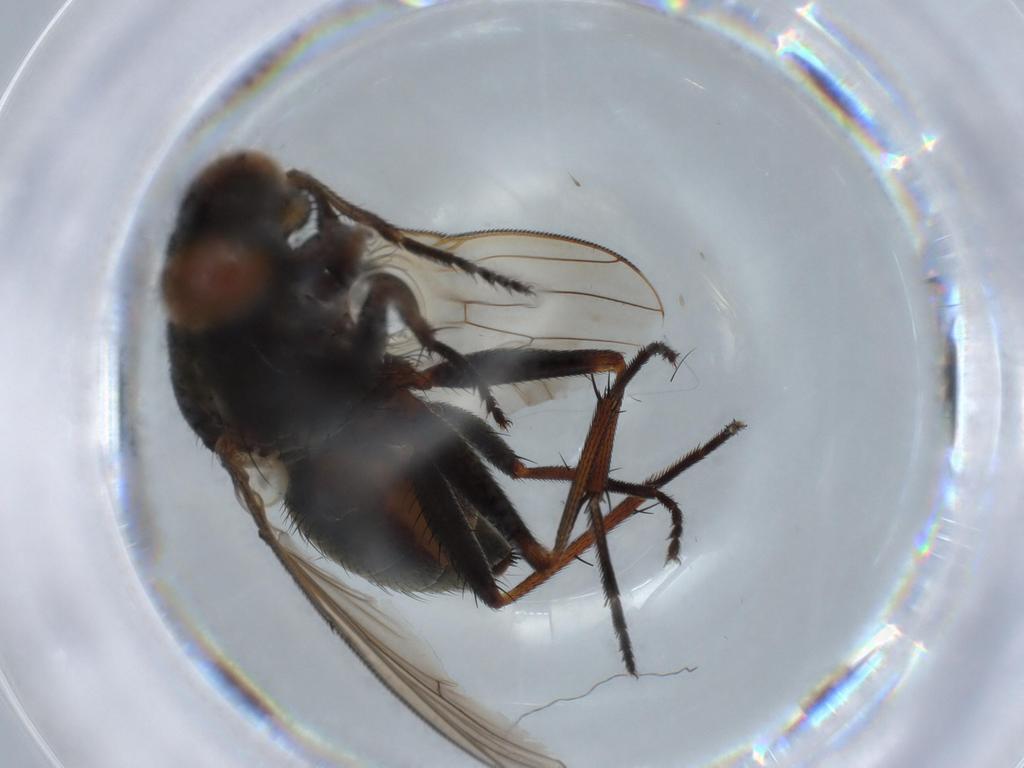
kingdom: Animalia
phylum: Arthropoda
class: Insecta
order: Diptera
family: Muscidae
